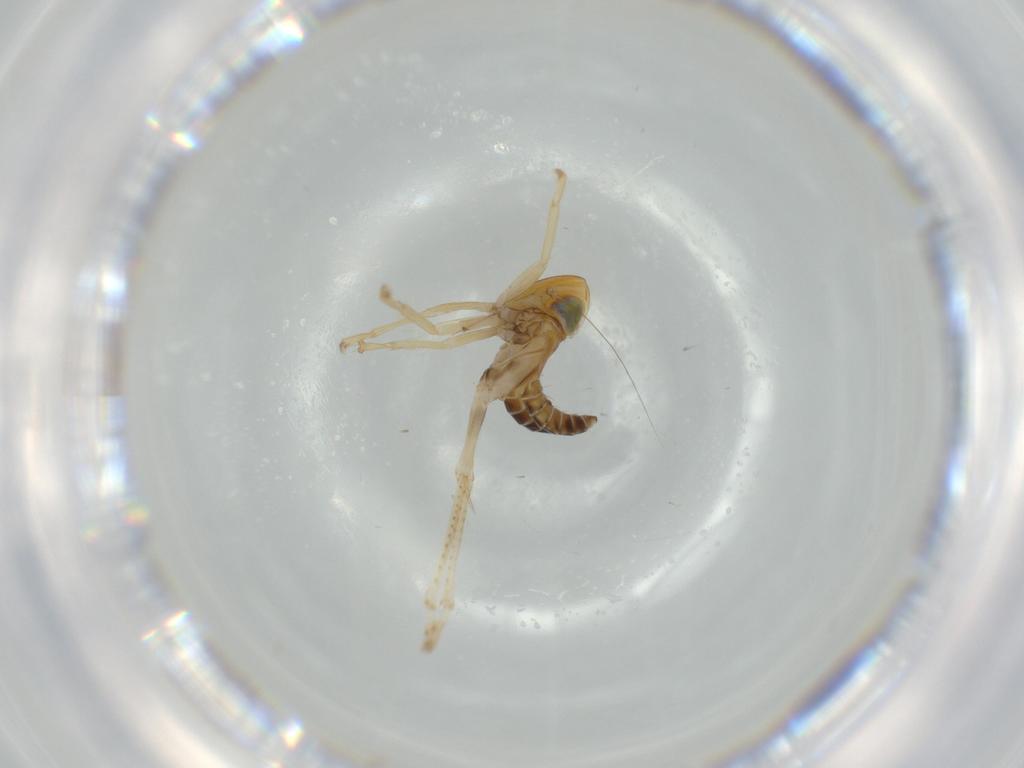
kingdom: Animalia
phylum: Arthropoda
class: Insecta
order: Hemiptera
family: Cicadellidae
